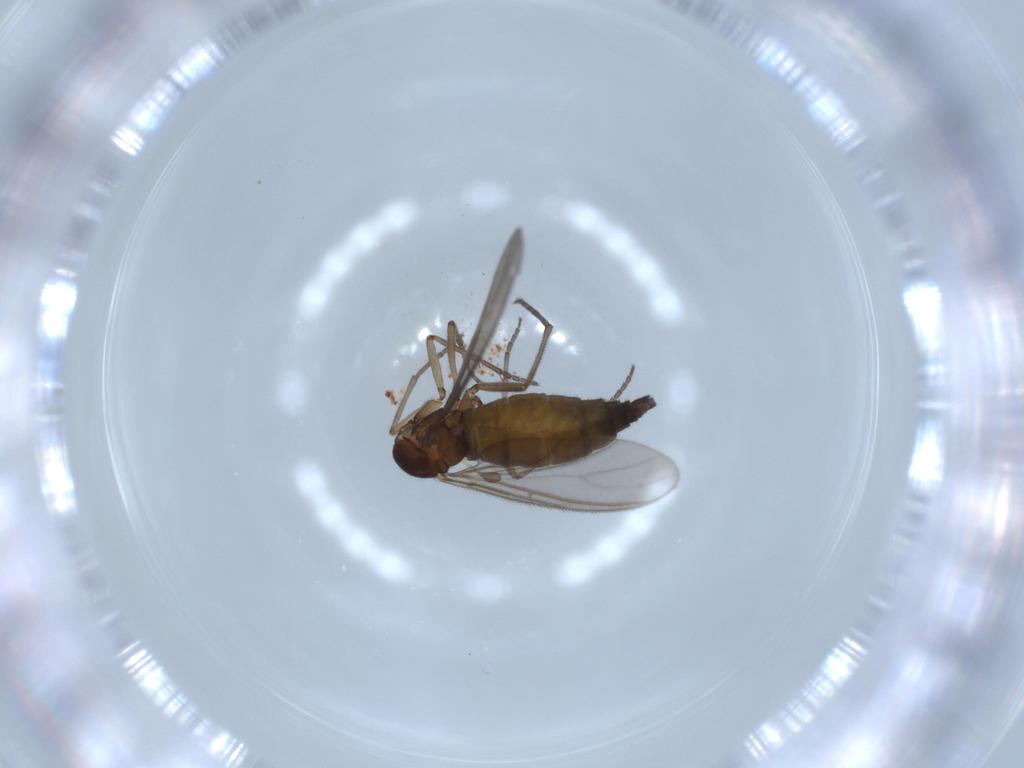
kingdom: Animalia
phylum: Arthropoda
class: Insecta
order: Diptera
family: Sciaridae
